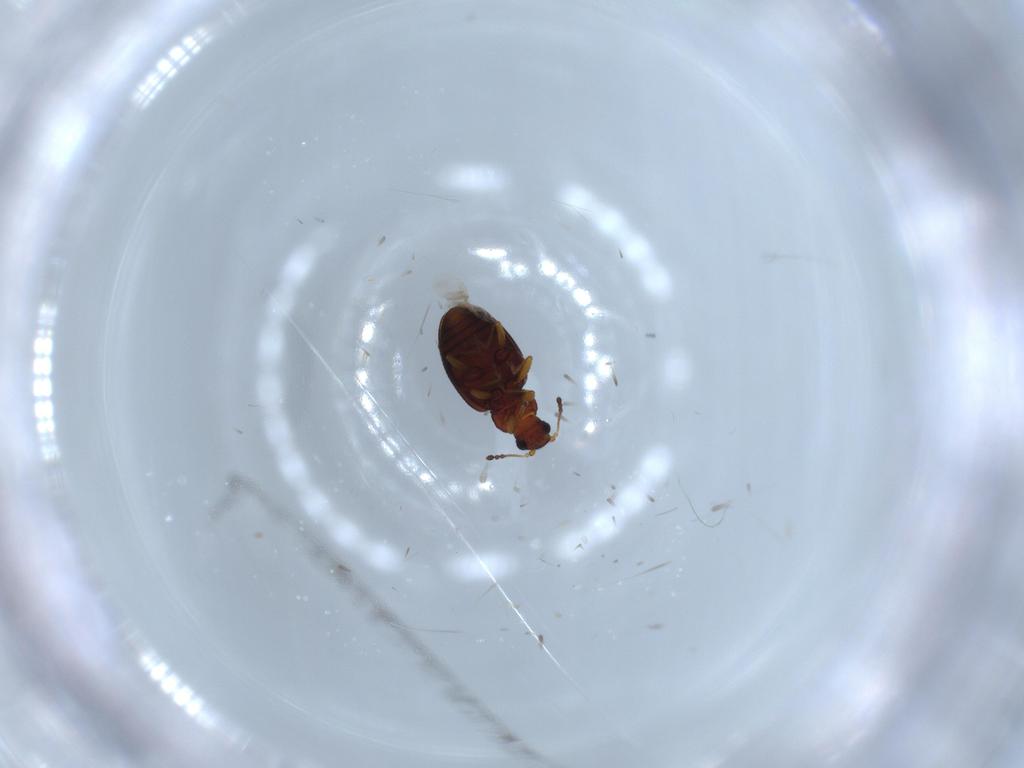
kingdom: Animalia
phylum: Arthropoda
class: Insecta
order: Coleoptera
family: Latridiidae
